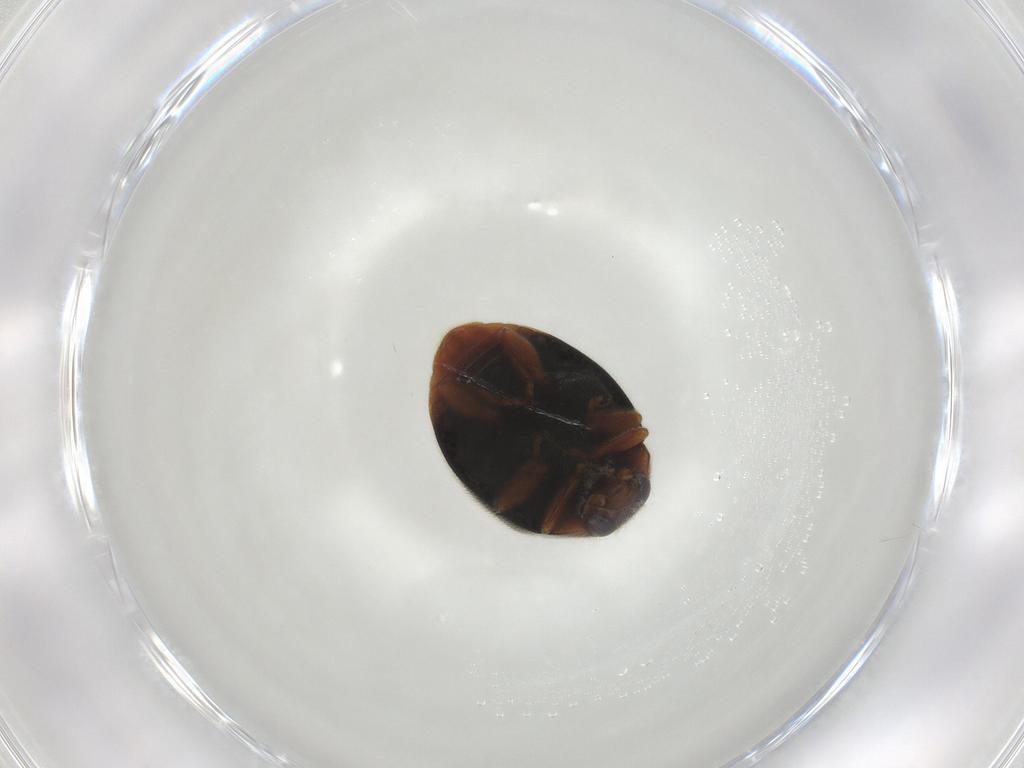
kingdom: Animalia
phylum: Arthropoda
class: Insecta
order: Coleoptera
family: Coccinellidae
